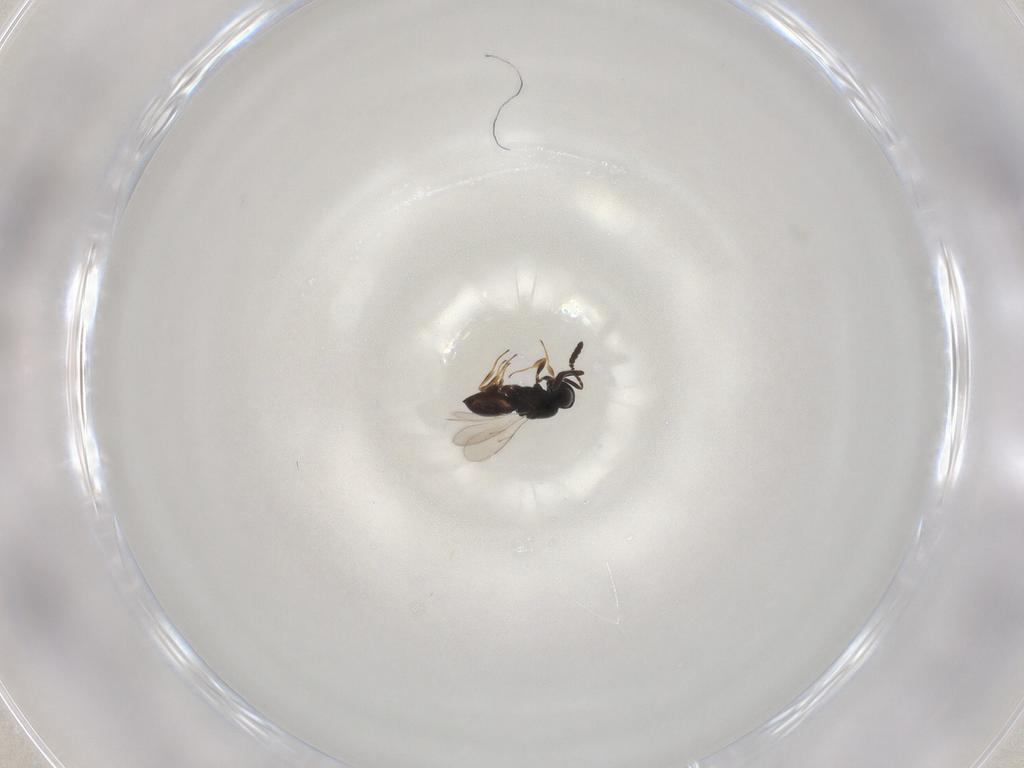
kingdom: Animalia
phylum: Arthropoda
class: Insecta
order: Hymenoptera
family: Scelionidae
